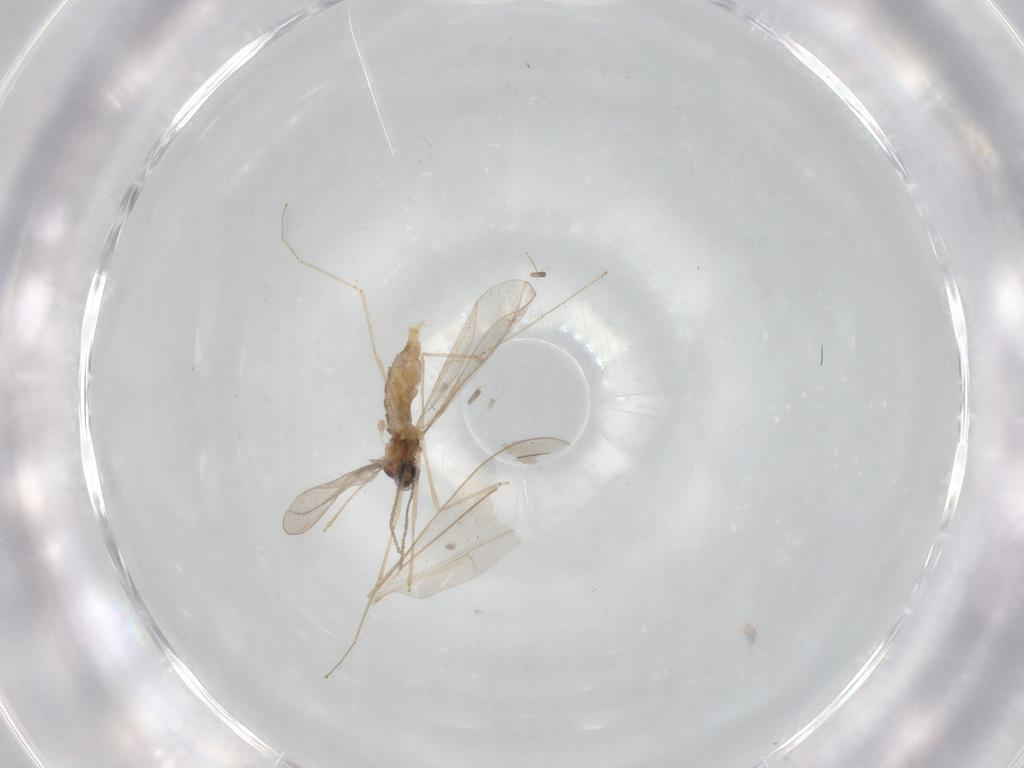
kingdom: Animalia
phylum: Arthropoda
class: Insecta
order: Diptera
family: Cecidomyiidae
